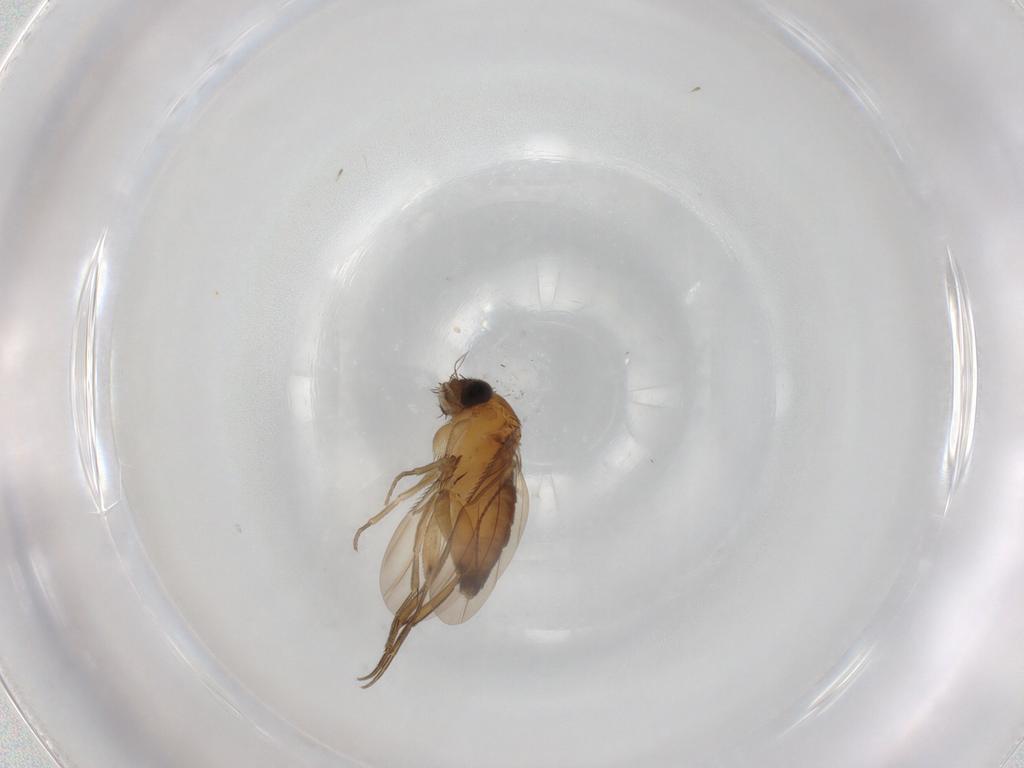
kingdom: Animalia
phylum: Arthropoda
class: Insecta
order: Diptera
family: Phoridae
